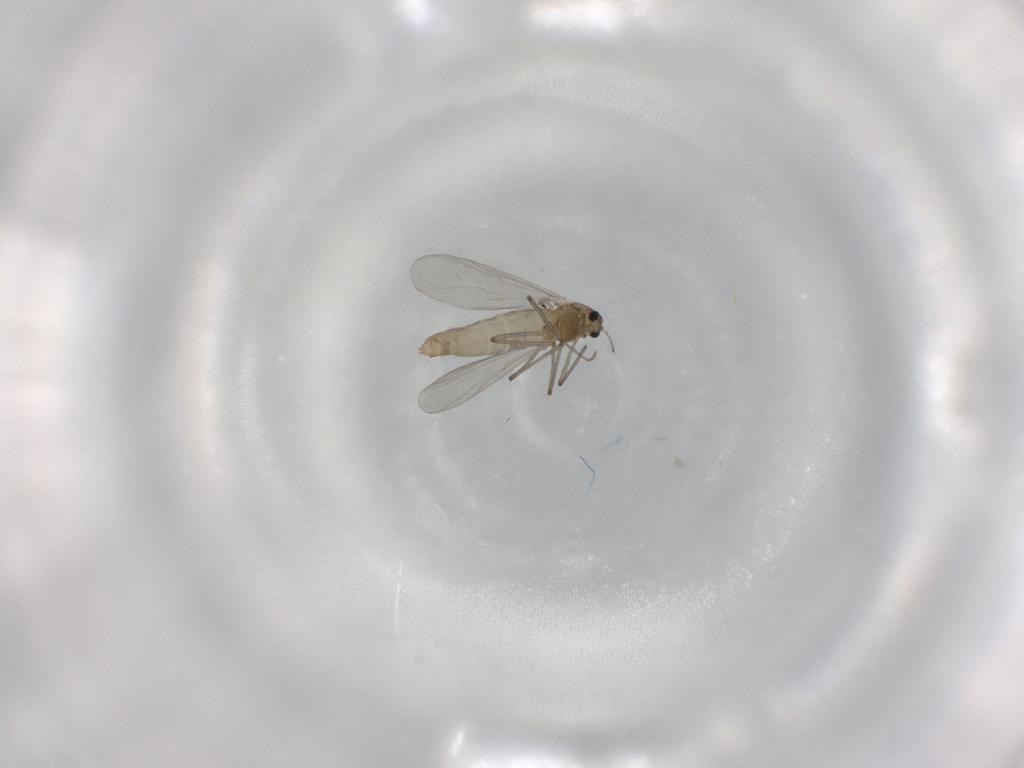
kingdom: Animalia
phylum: Arthropoda
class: Insecta
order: Diptera
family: Chironomidae
